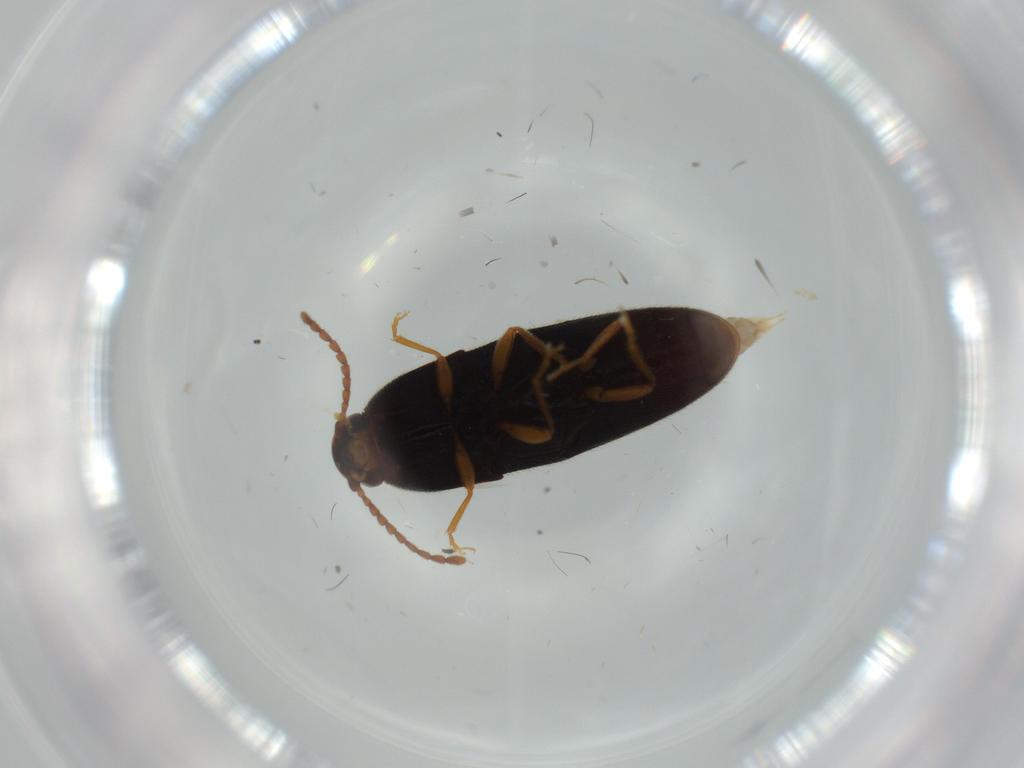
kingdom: Animalia
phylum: Arthropoda
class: Insecta
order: Coleoptera
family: Elateridae
